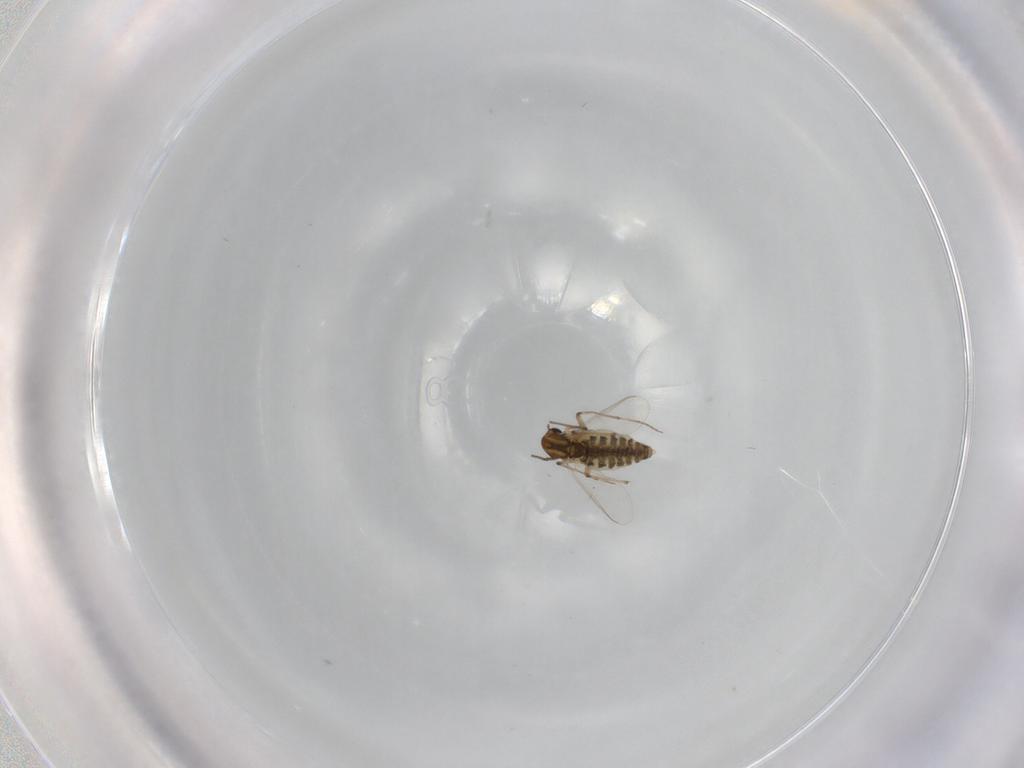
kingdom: Animalia
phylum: Arthropoda
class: Insecta
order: Diptera
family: Chironomidae
